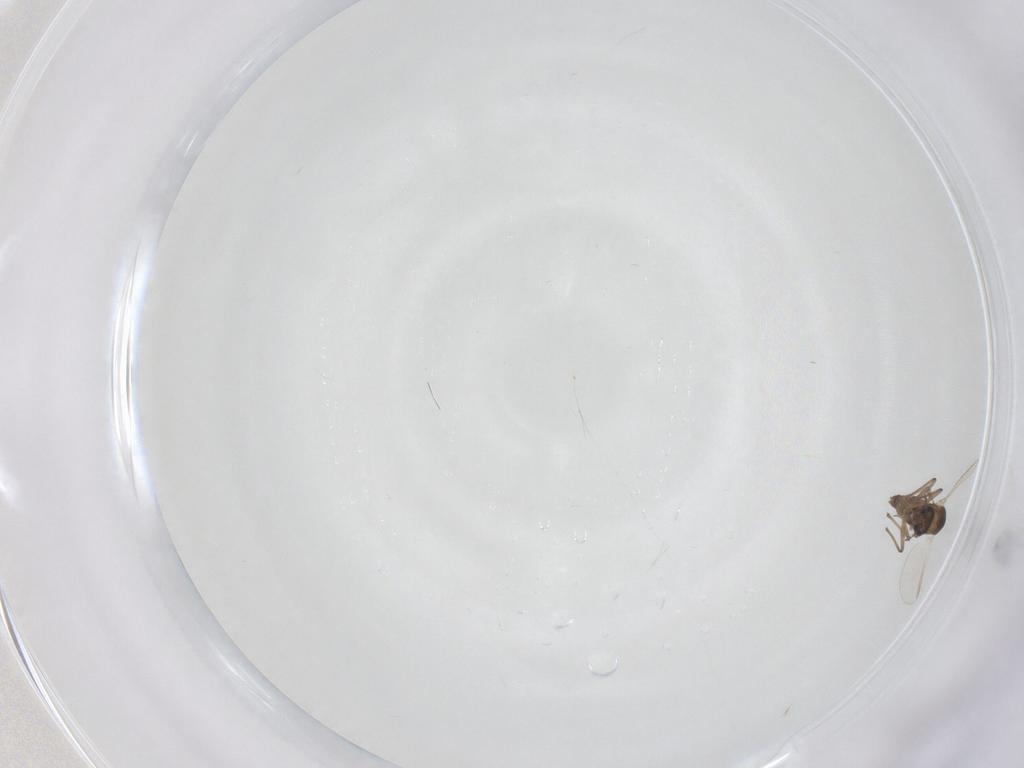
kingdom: Animalia
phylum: Arthropoda
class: Insecta
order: Diptera
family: Chironomidae
